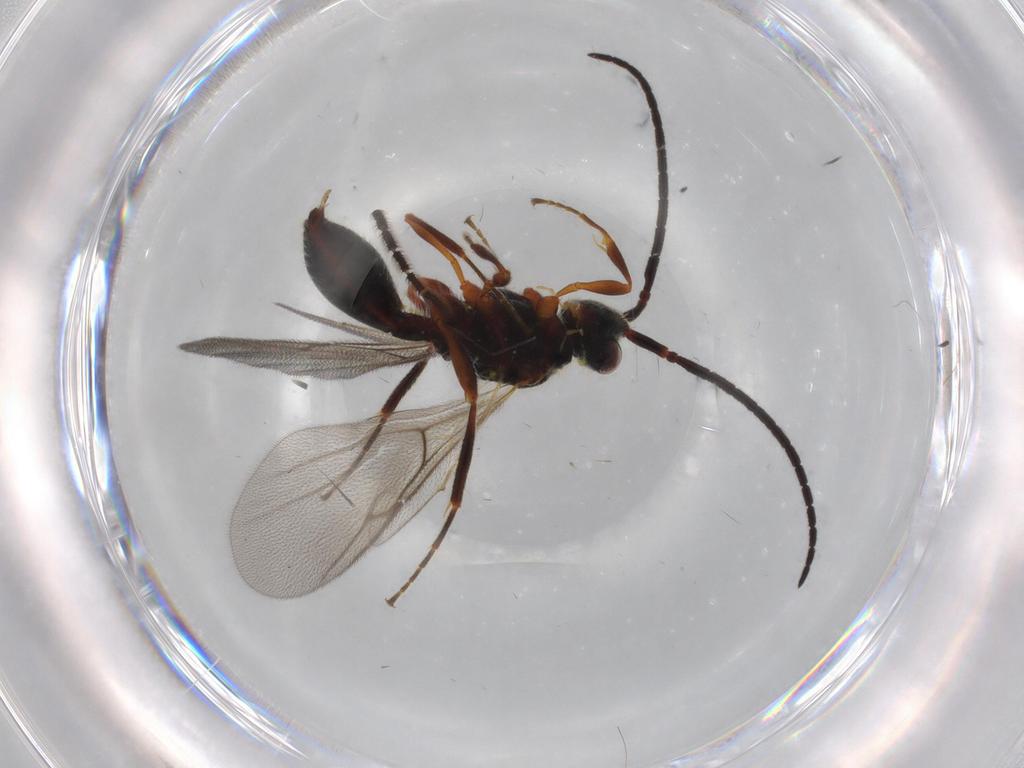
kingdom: Animalia
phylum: Arthropoda
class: Insecta
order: Hymenoptera
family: Diapriidae
